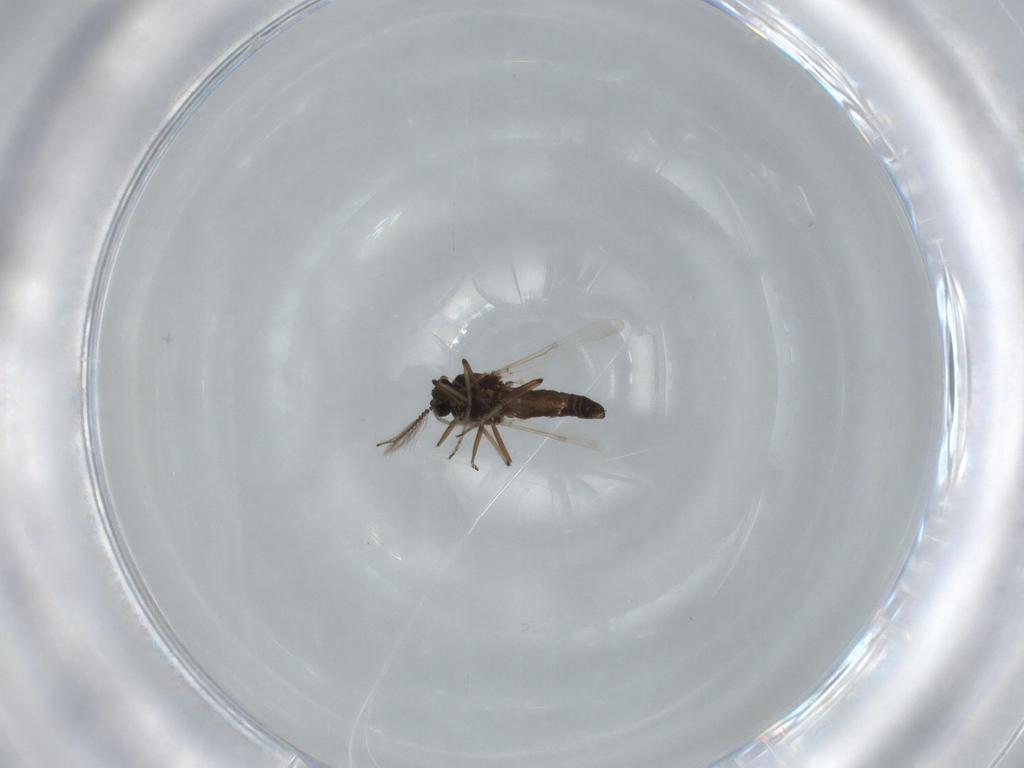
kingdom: Animalia
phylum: Arthropoda
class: Insecta
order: Diptera
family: Ceratopogonidae
